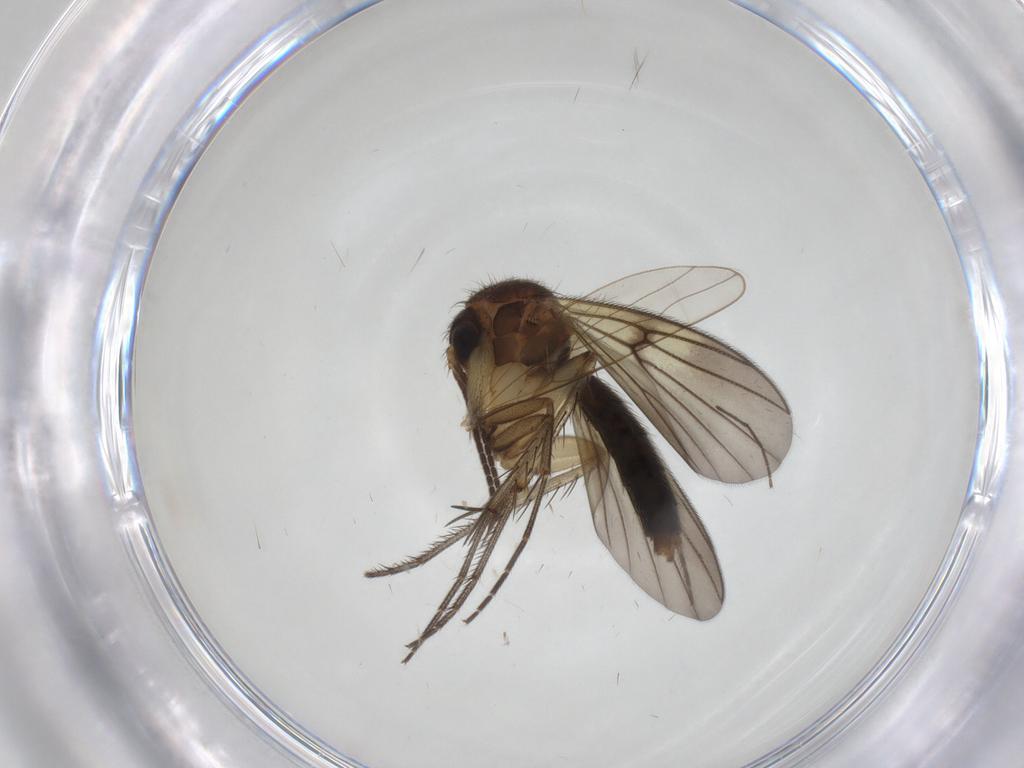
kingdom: Animalia
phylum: Arthropoda
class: Insecta
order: Diptera
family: Mycetophilidae
